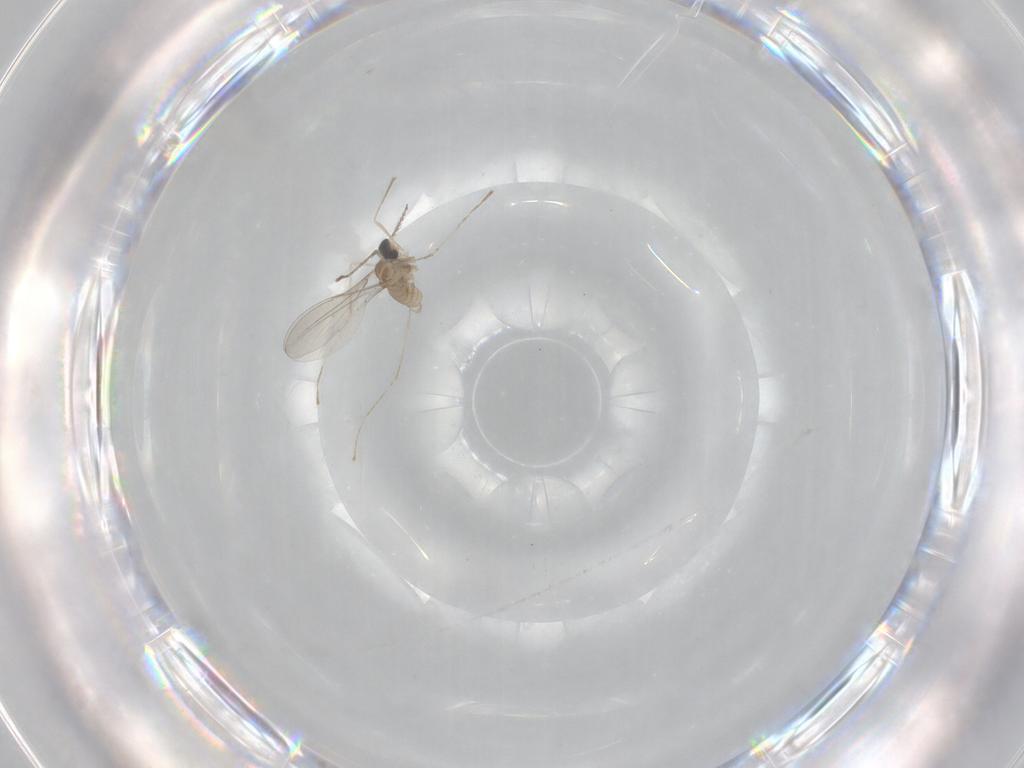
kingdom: Animalia
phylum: Arthropoda
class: Insecta
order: Diptera
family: Cecidomyiidae
